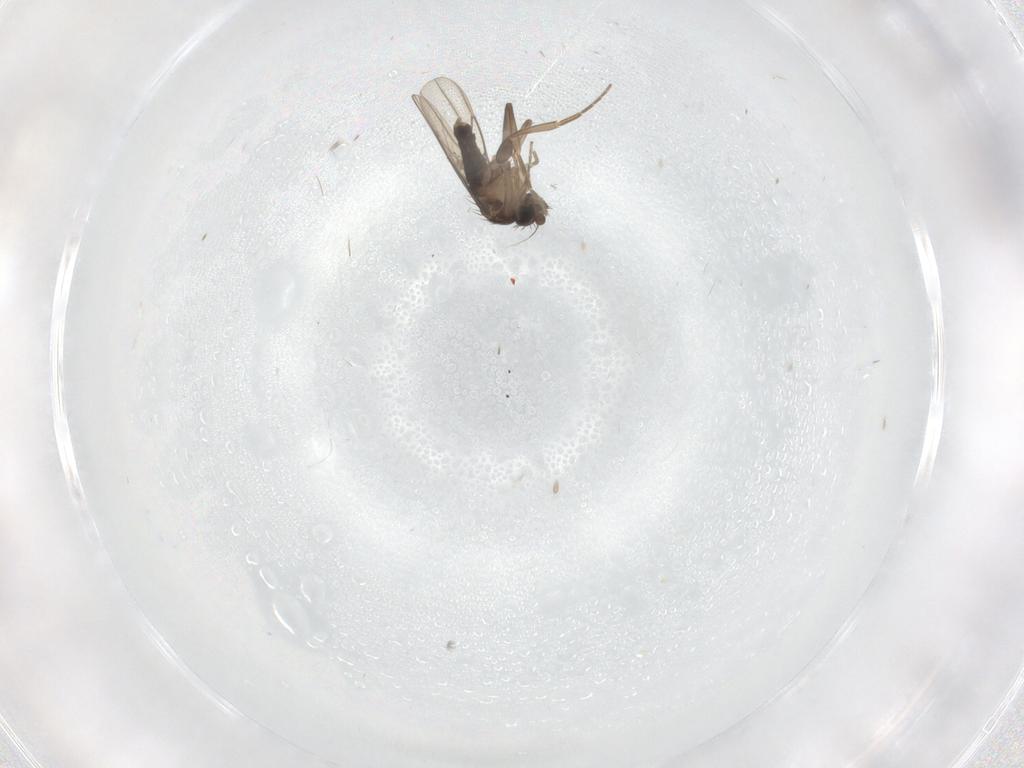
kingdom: Animalia
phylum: Arthropoda
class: Insecta
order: Diptera
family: Phoridae
